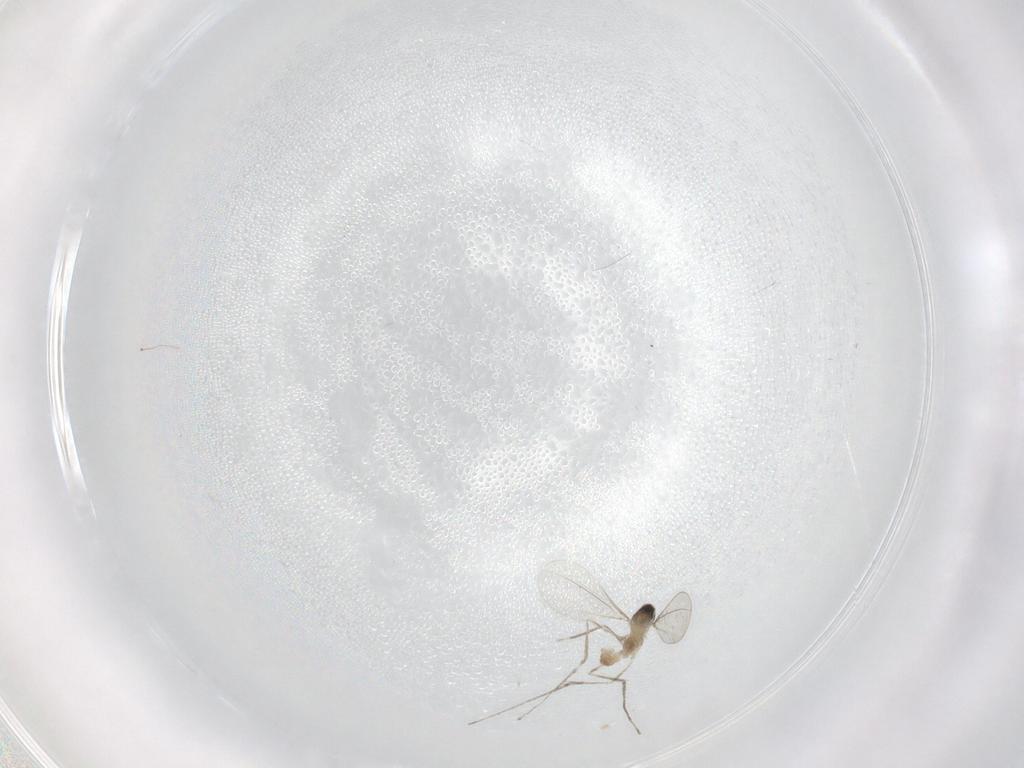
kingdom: Animalia
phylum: Arthropoda
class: Insecta
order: Diptera
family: Cecidomyiidae
